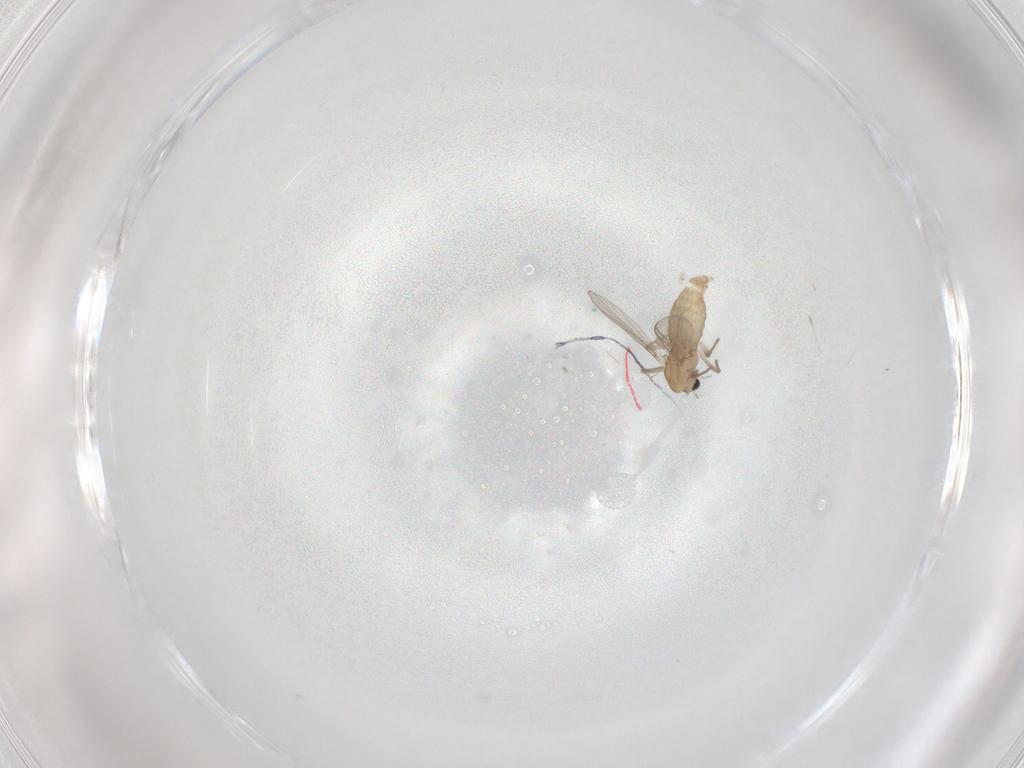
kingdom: Animalia
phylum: Arthropoda
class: Insecta
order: Diptera
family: Chironomidae
